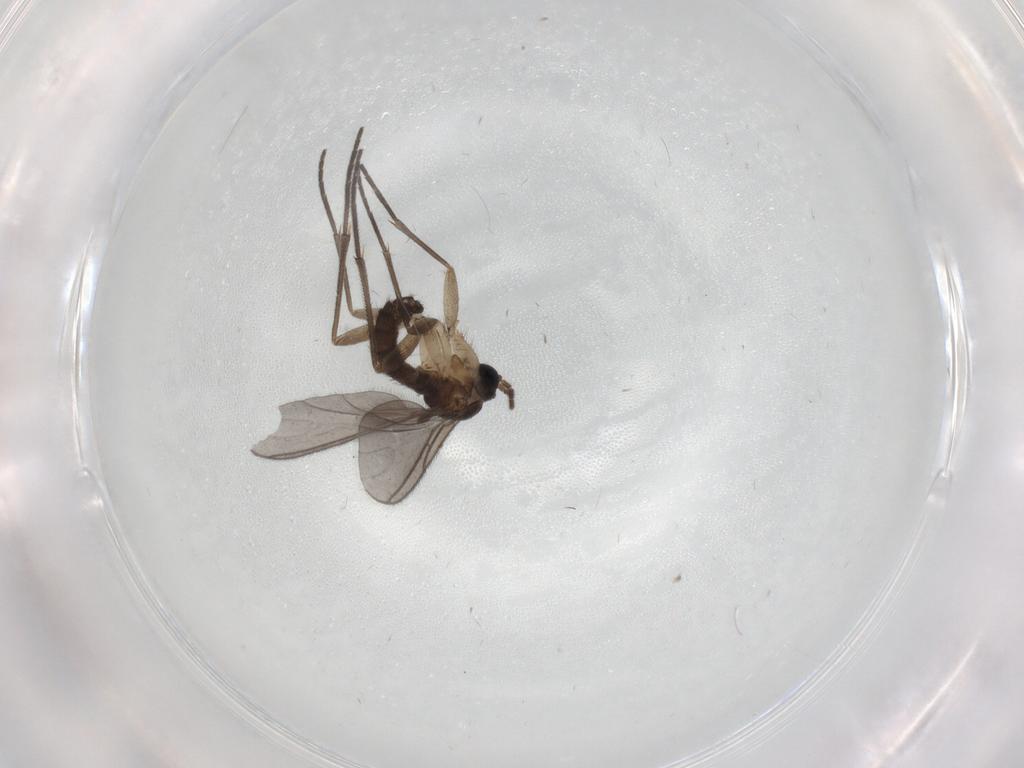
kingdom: Animalia
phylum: Arthropoda
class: Insecta
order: Diptera
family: Sciaridae
